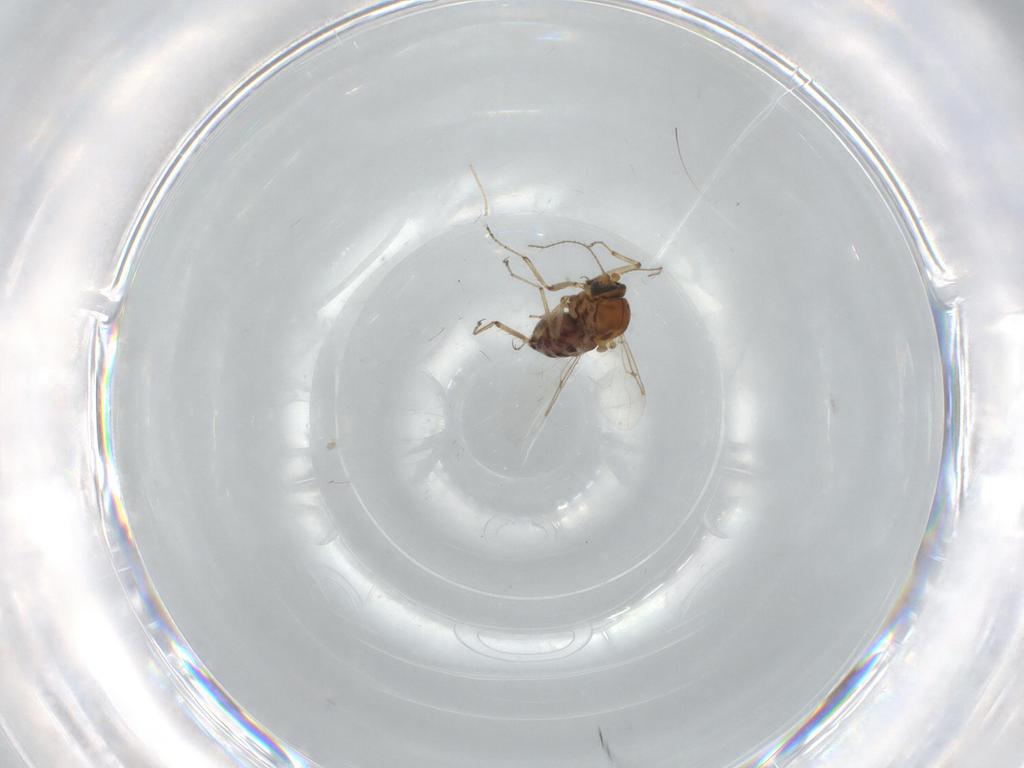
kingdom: Animalia
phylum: Arthropoda
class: Insecta
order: Diptera
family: Ceratopogonidae
